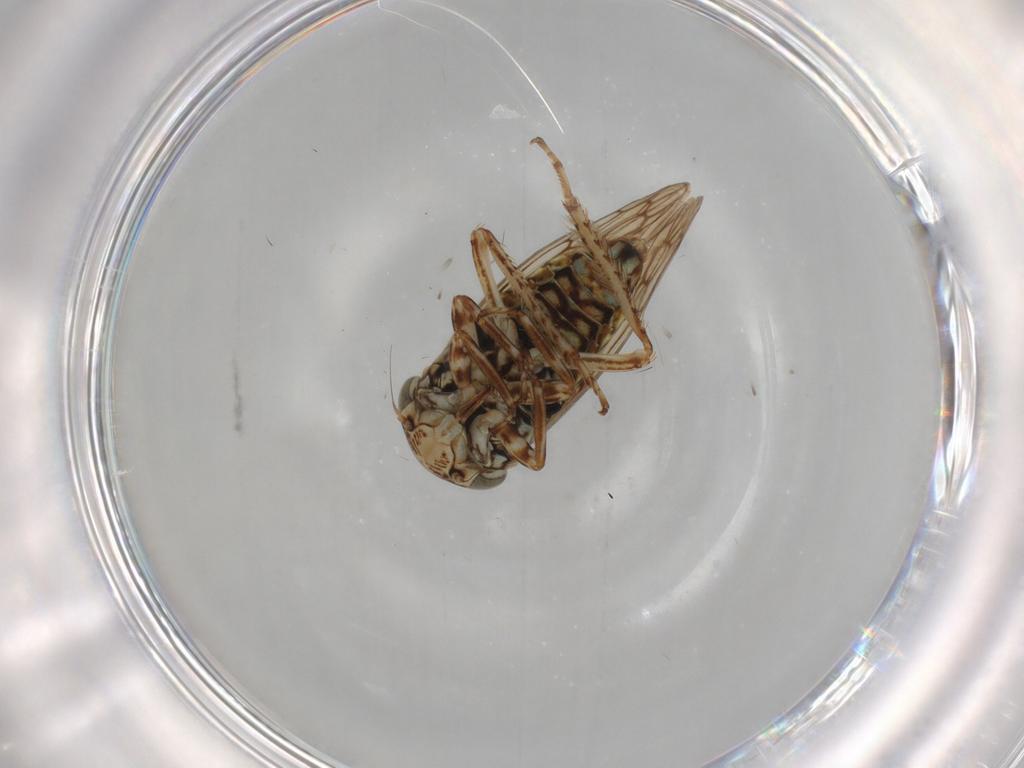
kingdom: Animalia
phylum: Arthropoda
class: Insecta
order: Hemiptera
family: Cicadellidae
